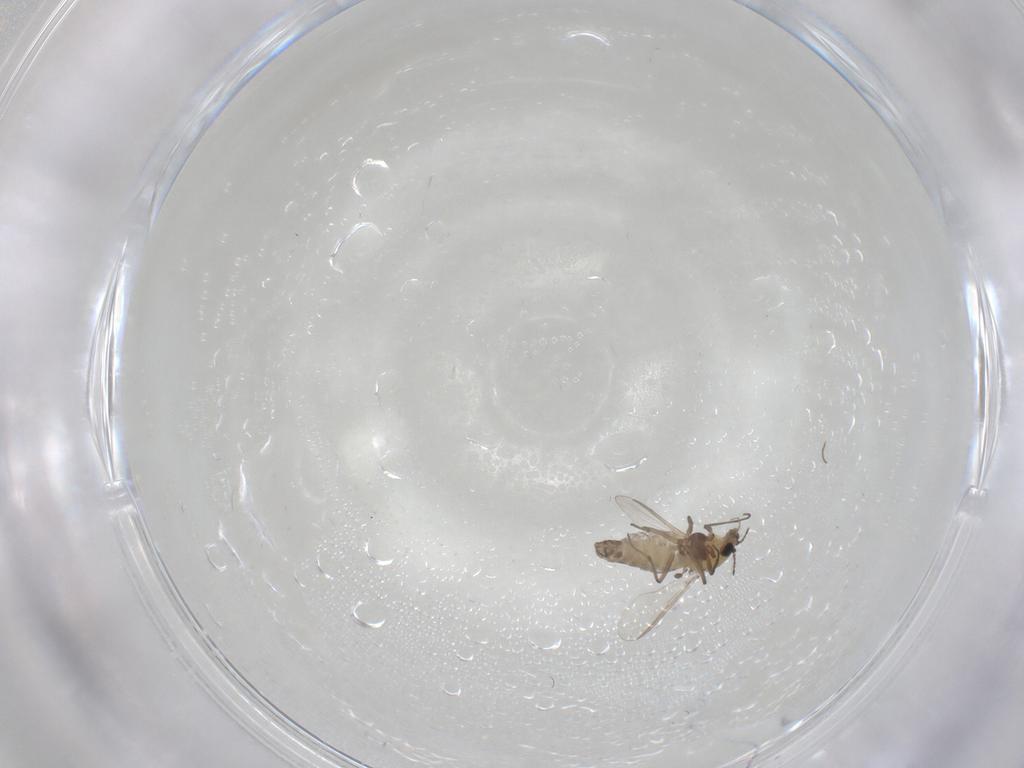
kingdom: Animalia
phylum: Arthropoda
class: Insecta
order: Diptera
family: Chironomidae
